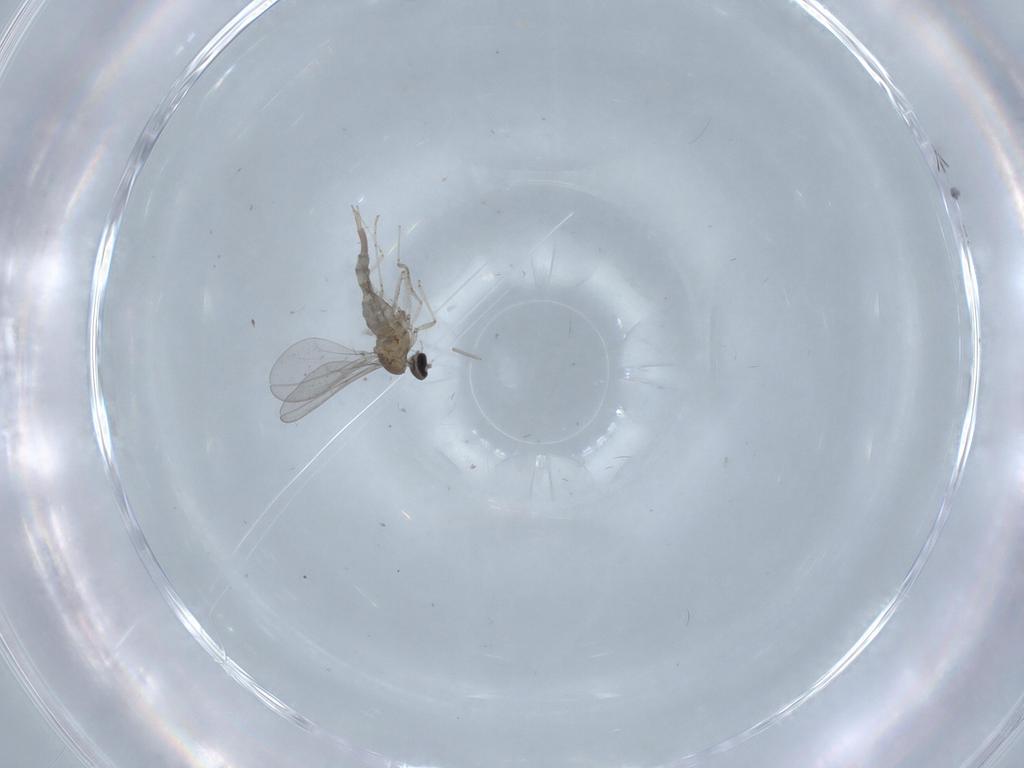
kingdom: Animalia
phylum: Arthropoda
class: Insecta
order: Diptera
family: Cecidomyiidae
